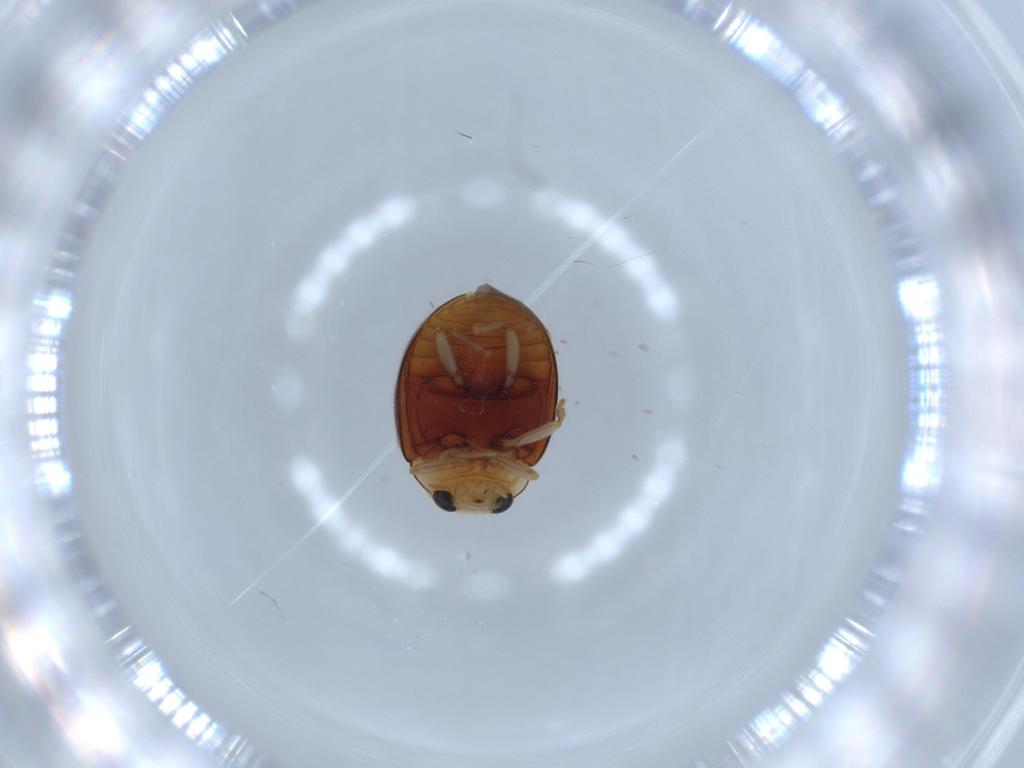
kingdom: Animalia
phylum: Arthropoda
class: Insecta
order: Coleoptera
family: Coccinellidae
